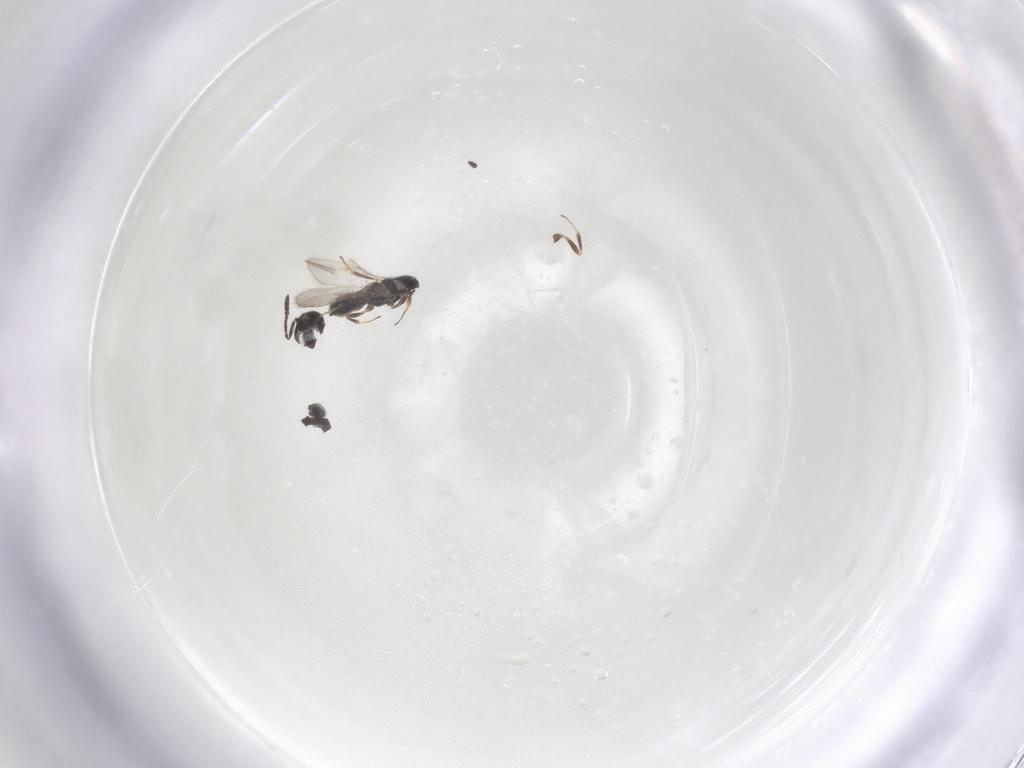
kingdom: Animalia
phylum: Arthropoda
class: Insecta
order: Hymenoptera
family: Scelionidae
